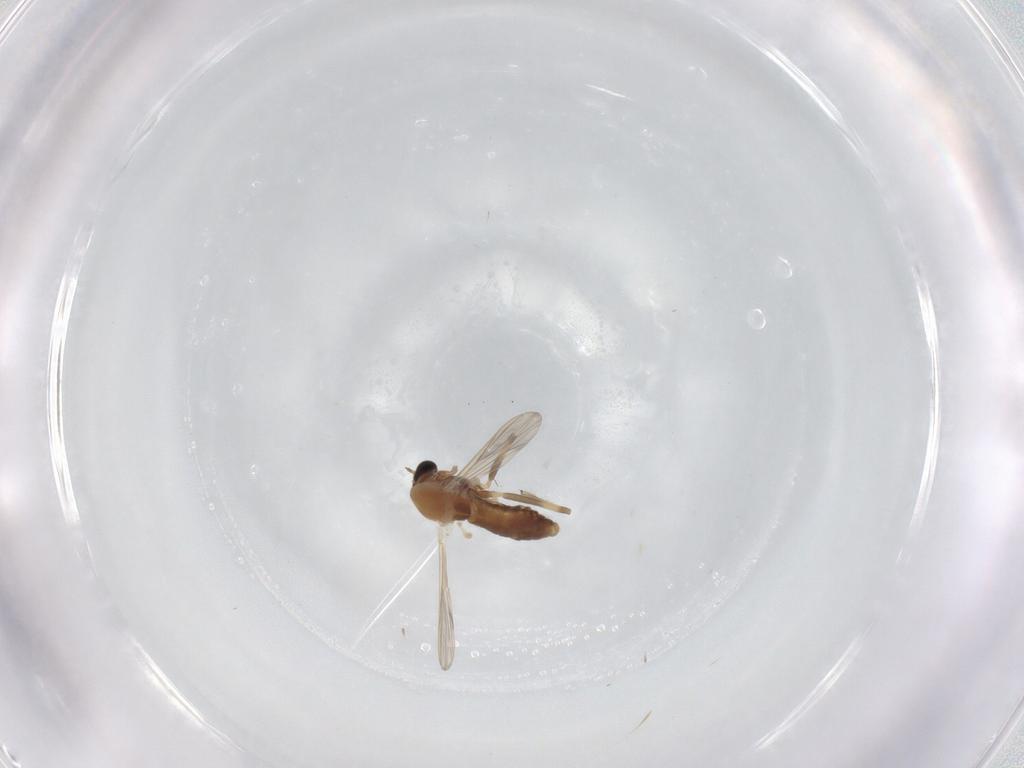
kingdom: Animalia
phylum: Arthropoda
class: Insecta
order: Diptera
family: Chironomidae
